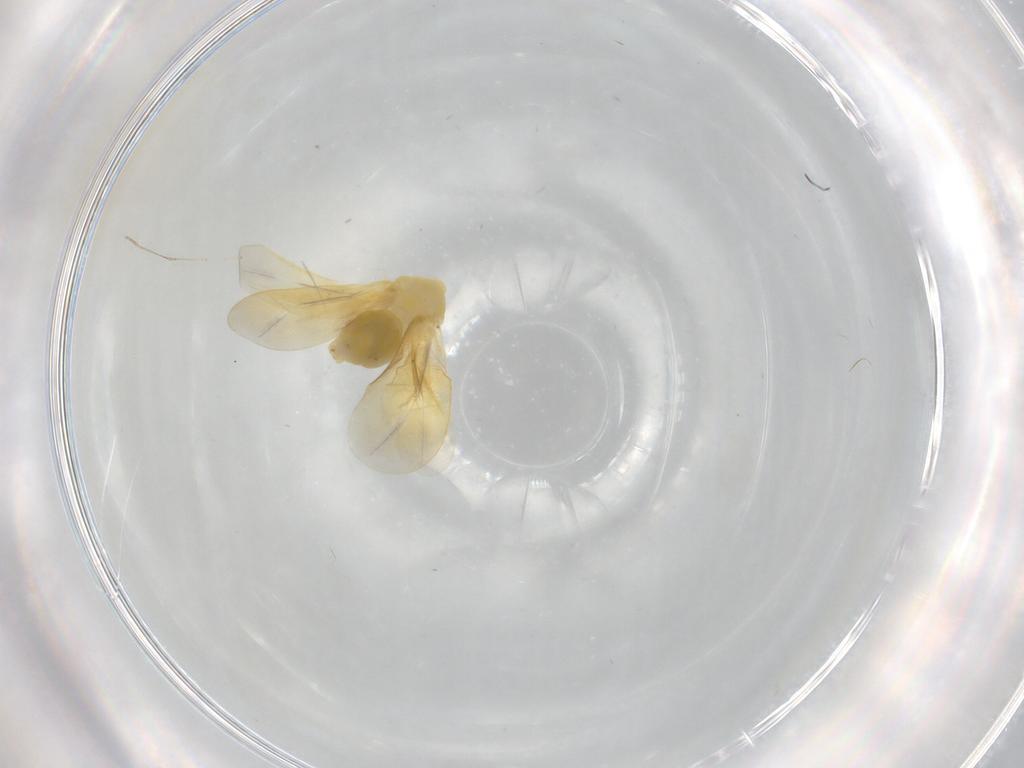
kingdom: Animalia
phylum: Arthropoda
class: Insecta
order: Hemiptera
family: Aleyrodidae
